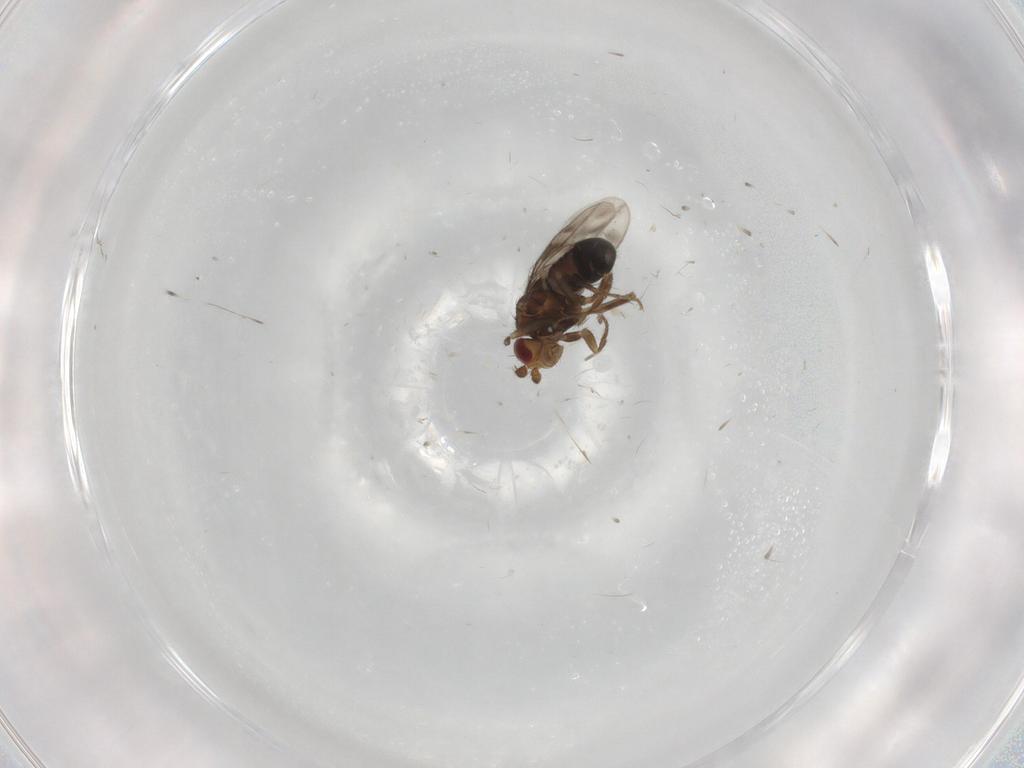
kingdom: Animalia
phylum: Arthropoda
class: Insecta
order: Diptera
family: Sphaeroceridae
